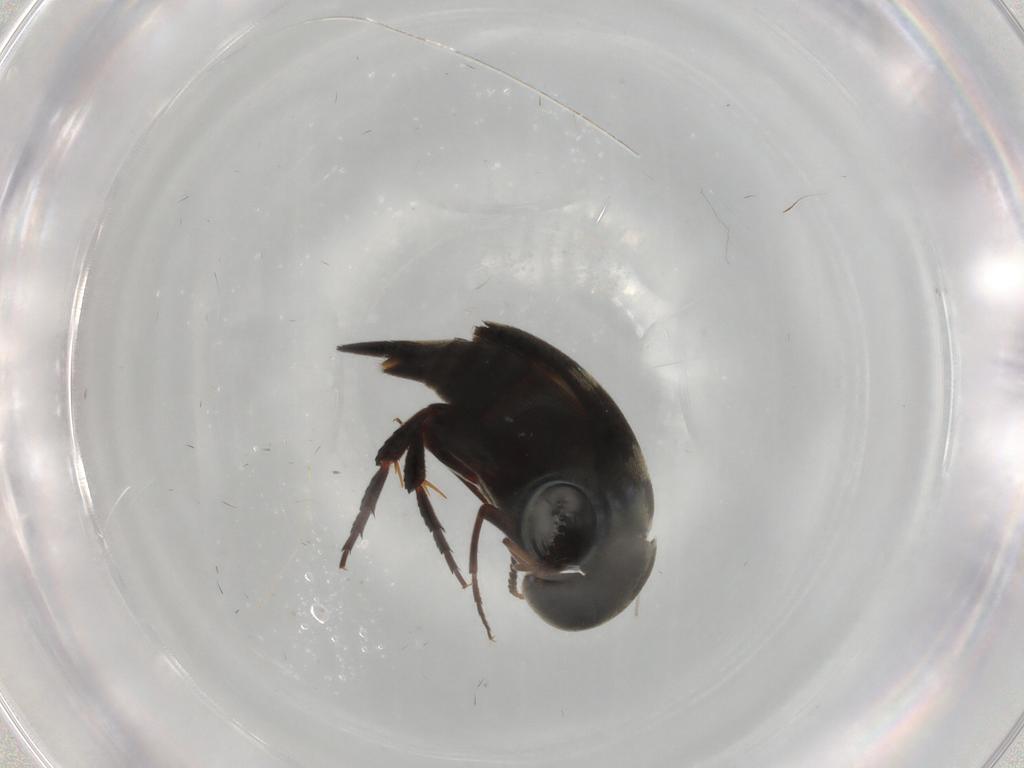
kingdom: Animalia
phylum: Arthropoda
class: Insecta
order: Coleoptera
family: Mordellidae
